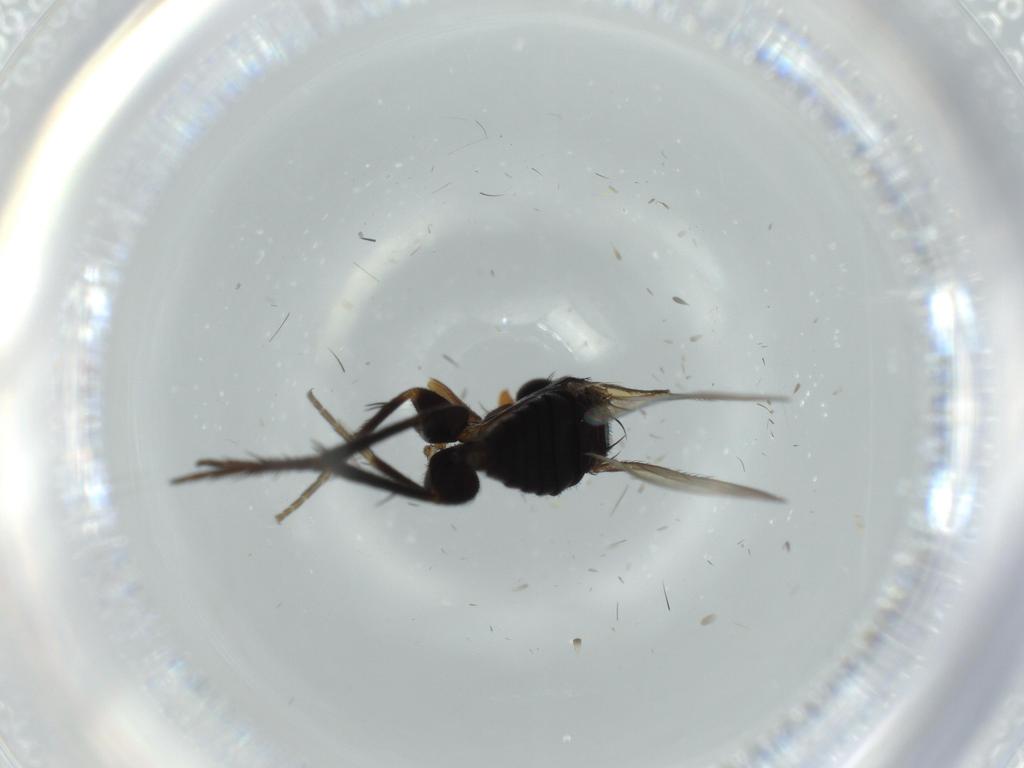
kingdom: Animalia
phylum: Arthropoda
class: Insecta
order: Diptera
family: Phoridae
